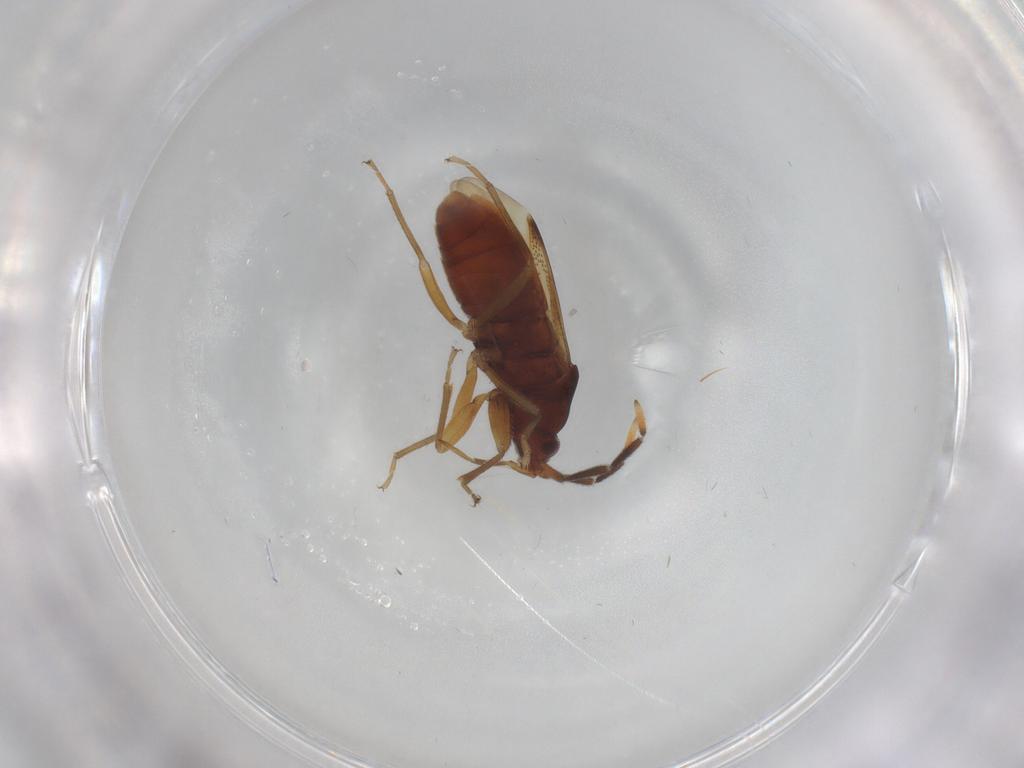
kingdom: Animalia
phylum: Arthropoda
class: Insecta
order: Hemiptera
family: Rhyparochromidae
